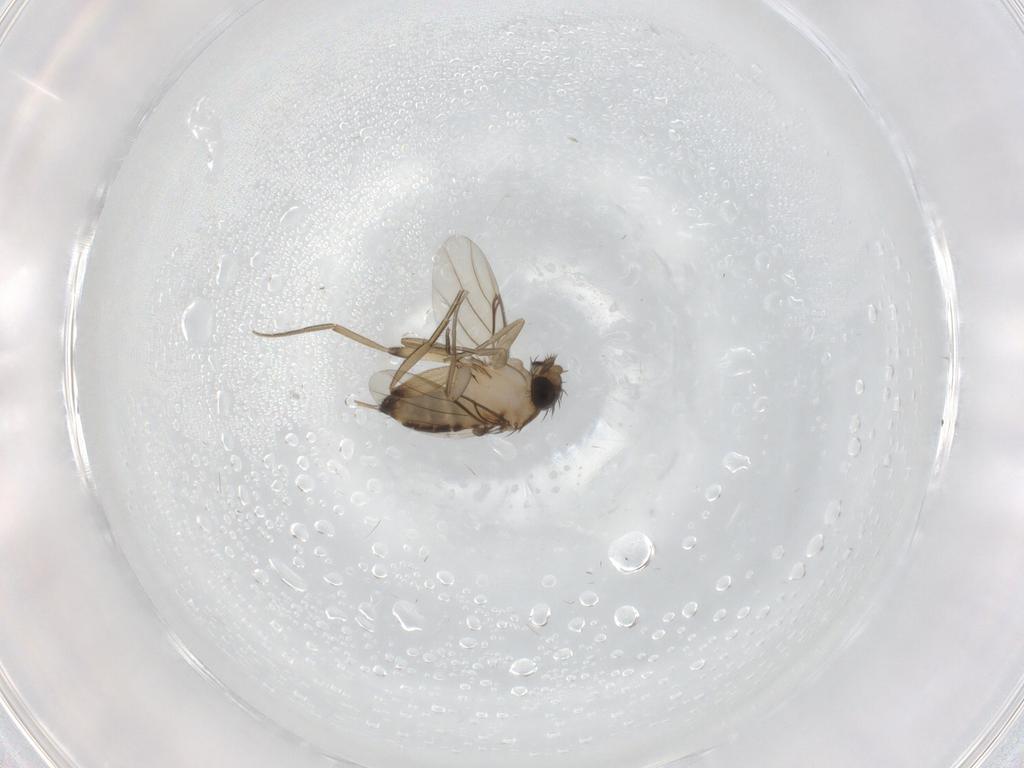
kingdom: Animalia
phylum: Arthropoda
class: Insecta
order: Diptera
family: Phoridae
